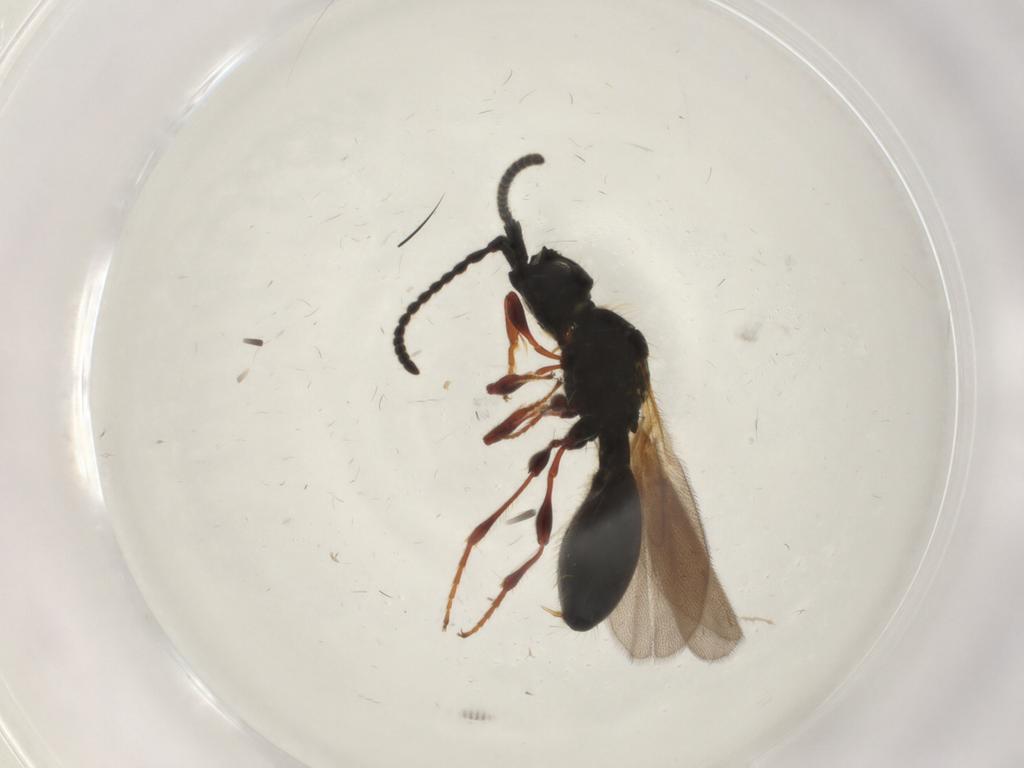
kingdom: Animalia
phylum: Arthropoda
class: Insecta
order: Hymenoptera
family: Diapriidae
